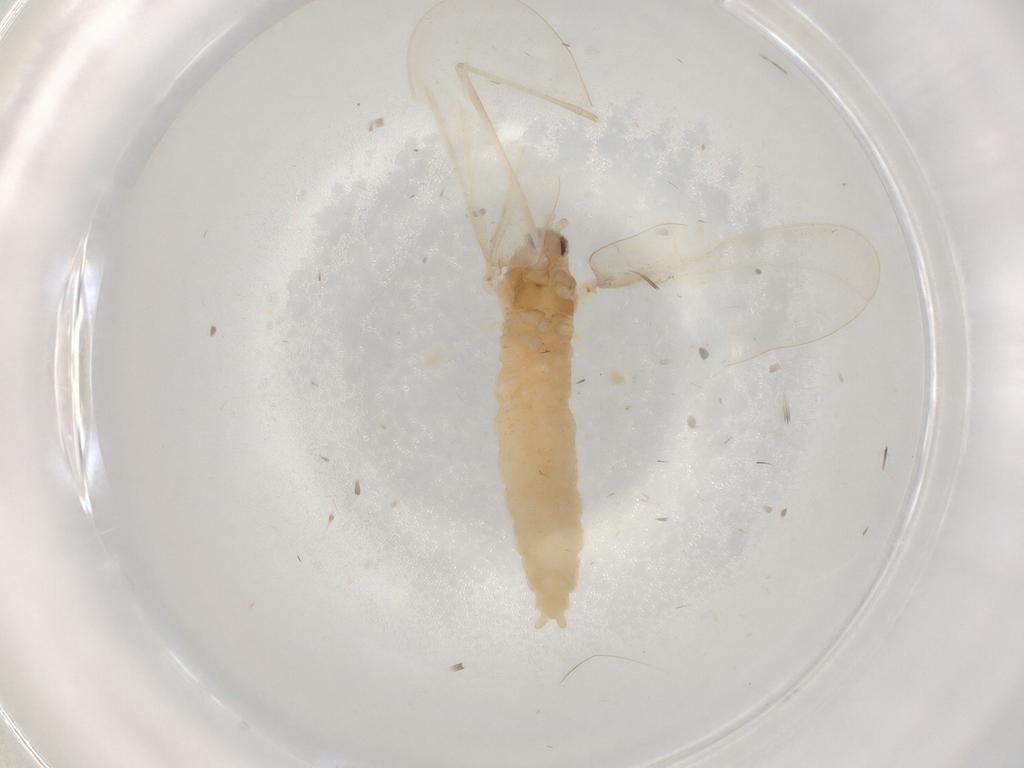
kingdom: Animalia
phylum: Arthropoda
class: Insecta
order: Diptera
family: Cecidomyiidae
